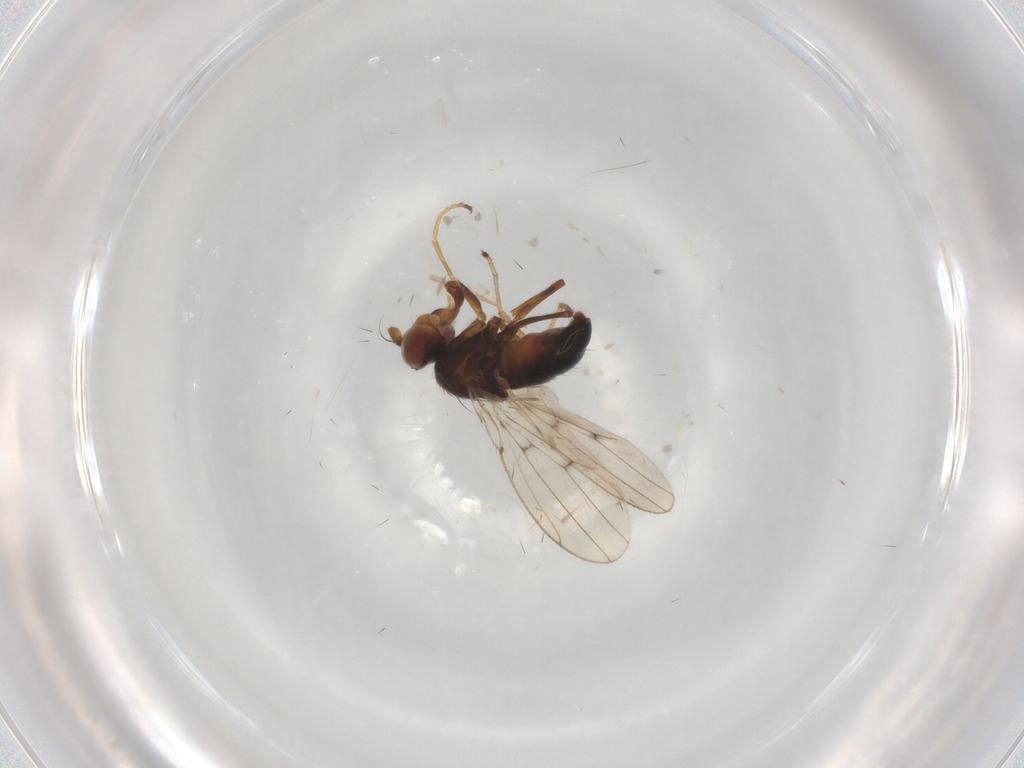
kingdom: Animalia
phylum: Arthropoda
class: Insecta
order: Diptera
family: Ephydridae
